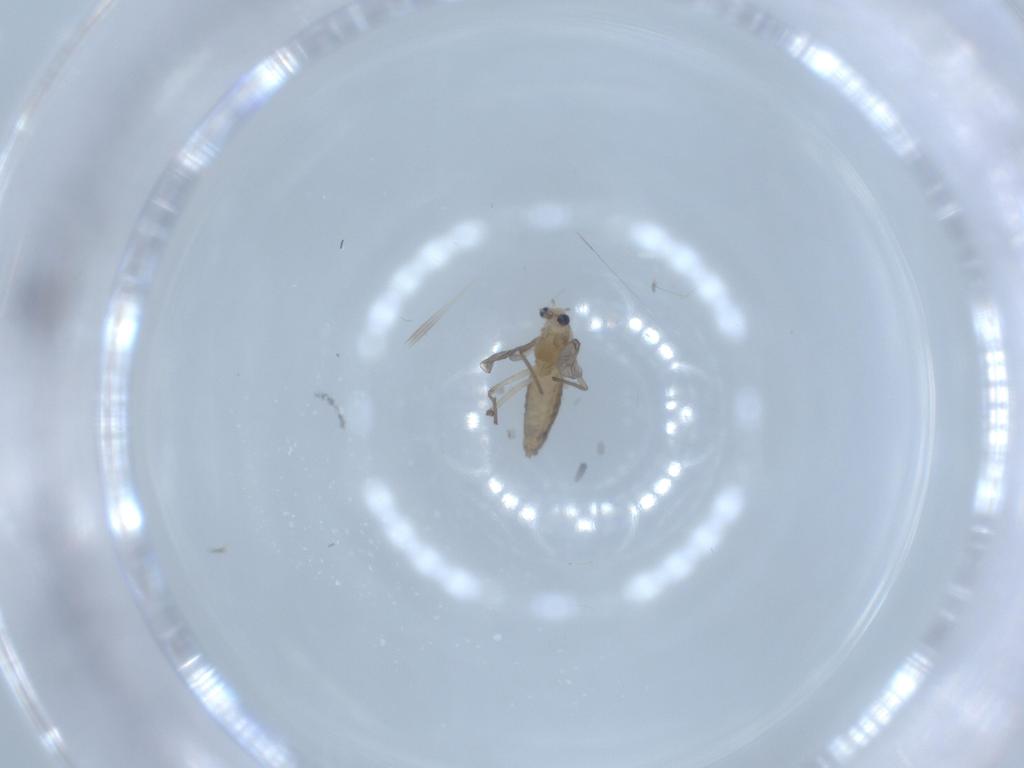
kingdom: Animalia
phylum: Arthropoda
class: Insecta
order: Diptera
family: Chironomidae
